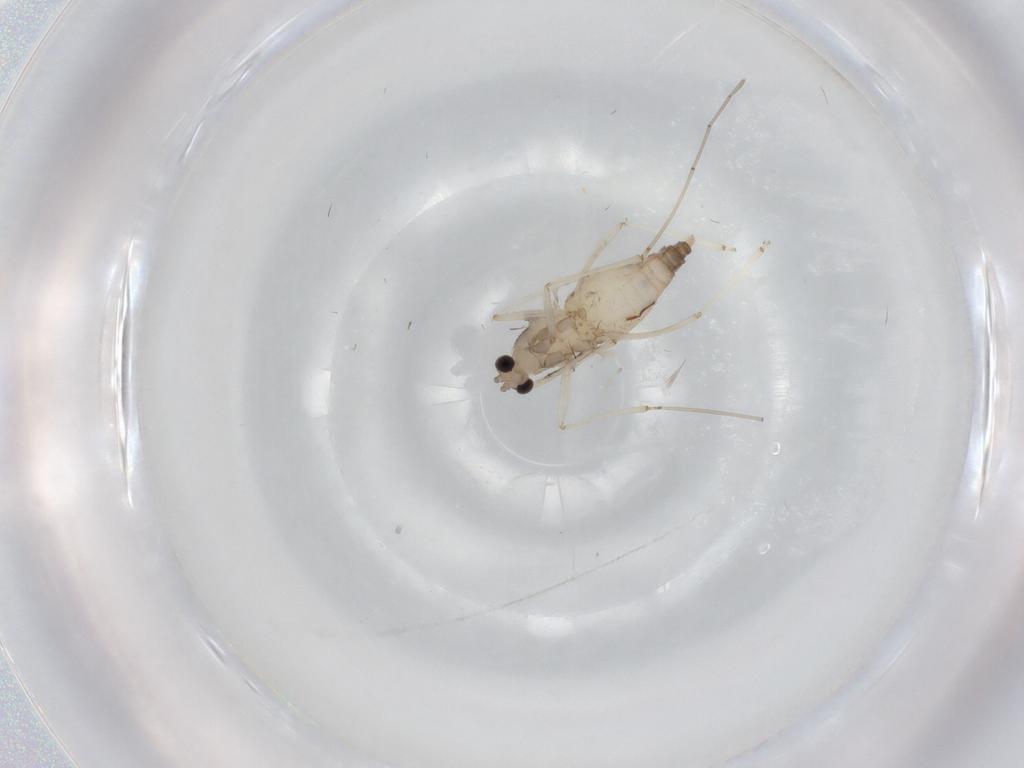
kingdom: Animalia
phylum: Arthropoda
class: Insecta
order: Diptera
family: Cecidomyiidae
